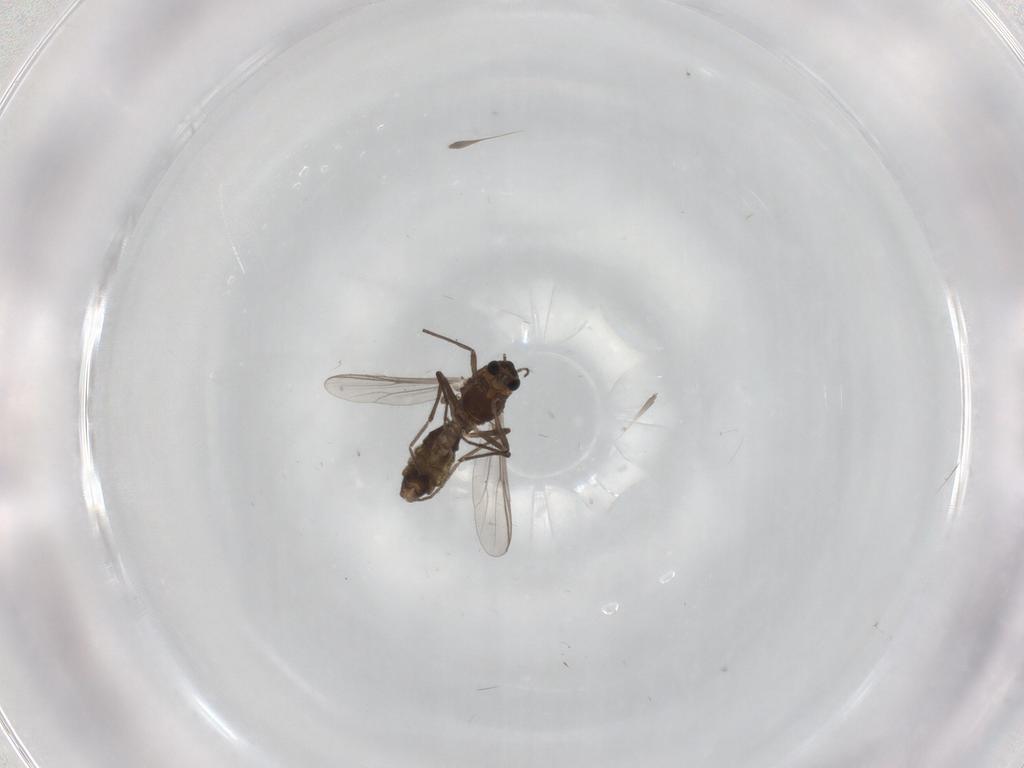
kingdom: Animalia
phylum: Arthropoda
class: Insecta
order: Diptera
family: Chironomidae
